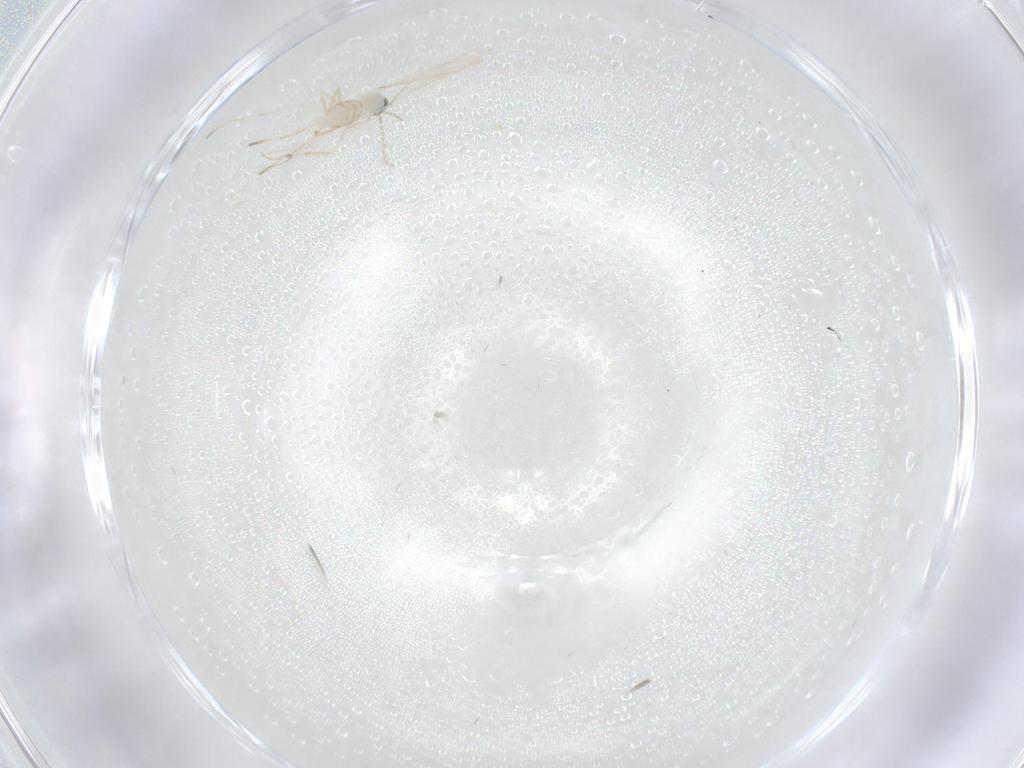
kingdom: Animalia
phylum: Arthropoda
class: Insecta
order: Diptera
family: Cecidomyiidae
